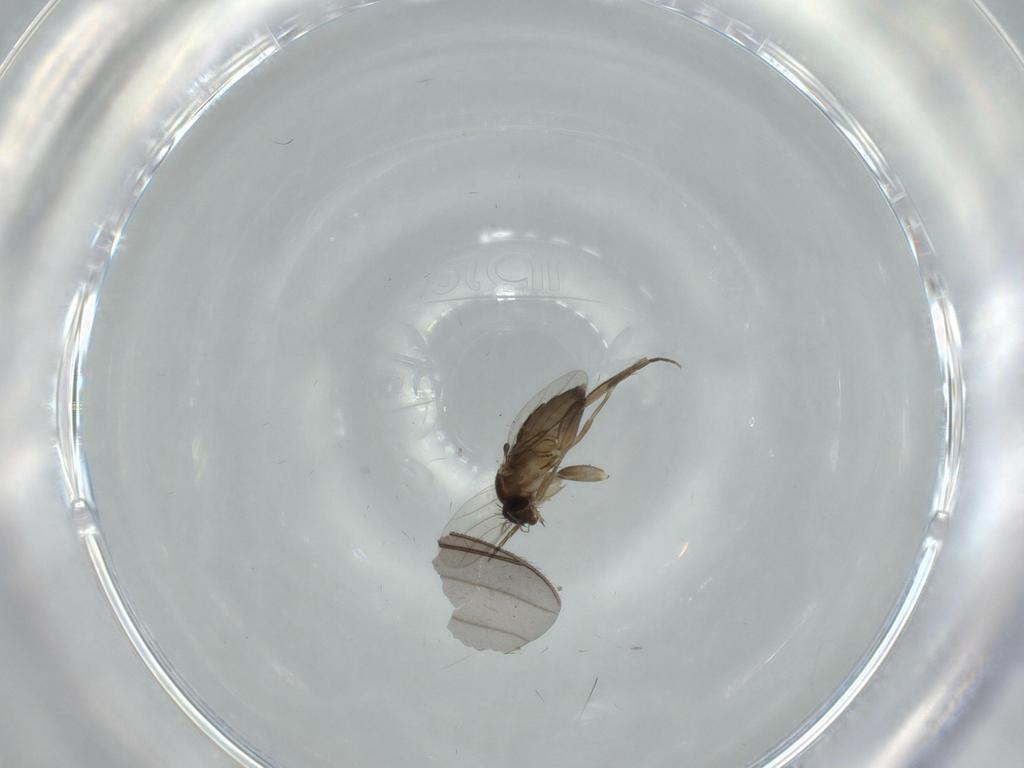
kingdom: Animalia
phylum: Arthropoda
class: Insecta
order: Diptera
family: Phoridae
